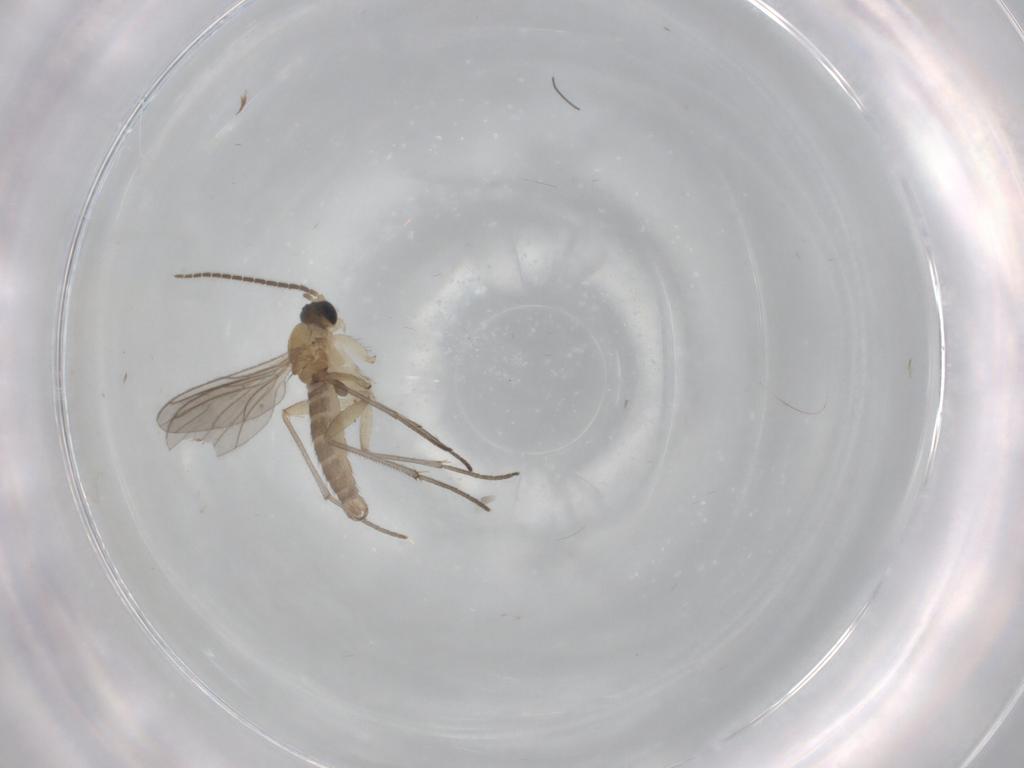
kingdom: Animalia
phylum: Arthropoda
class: Insecta
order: Diptera
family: Sciaridae
